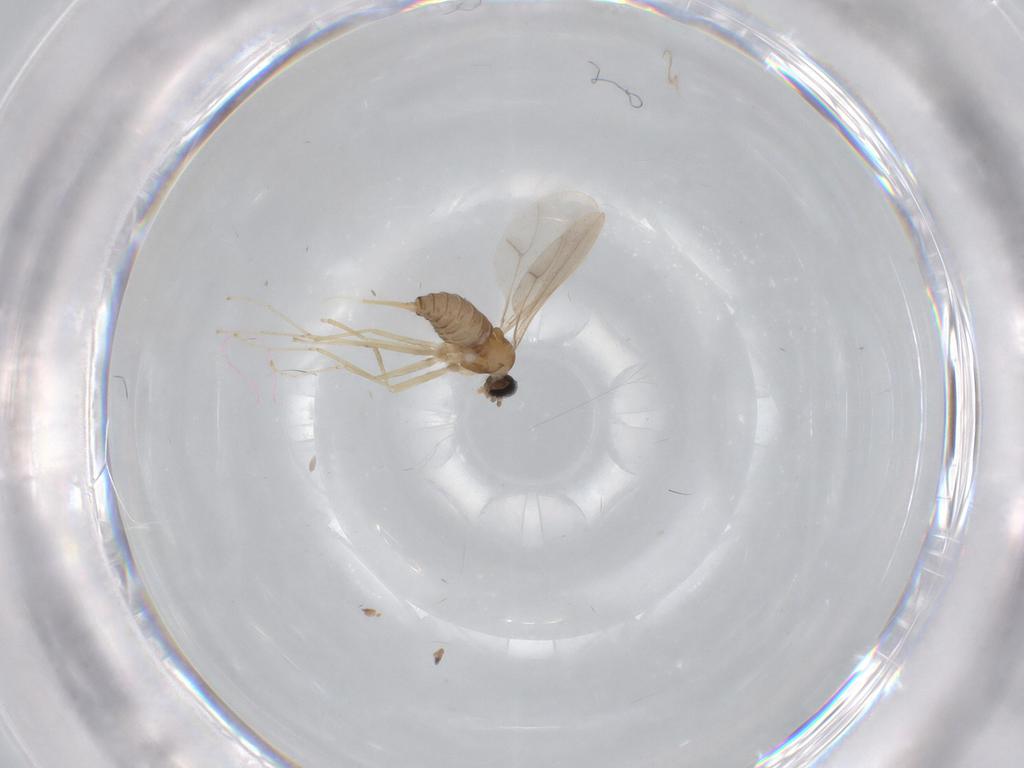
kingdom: Animalia
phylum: Arthropoda
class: Insecta
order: Diptera
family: Cecidomyiidae
